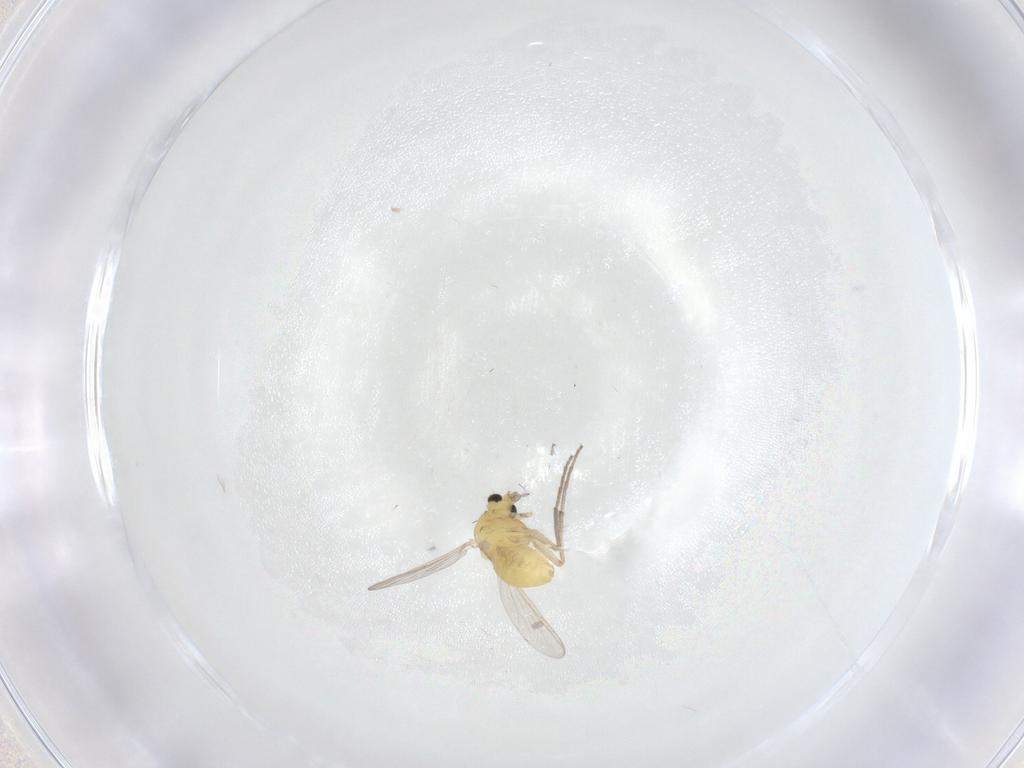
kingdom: Animalia
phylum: Arthropoda
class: Insecta
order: Diptera
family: Chironomidae
